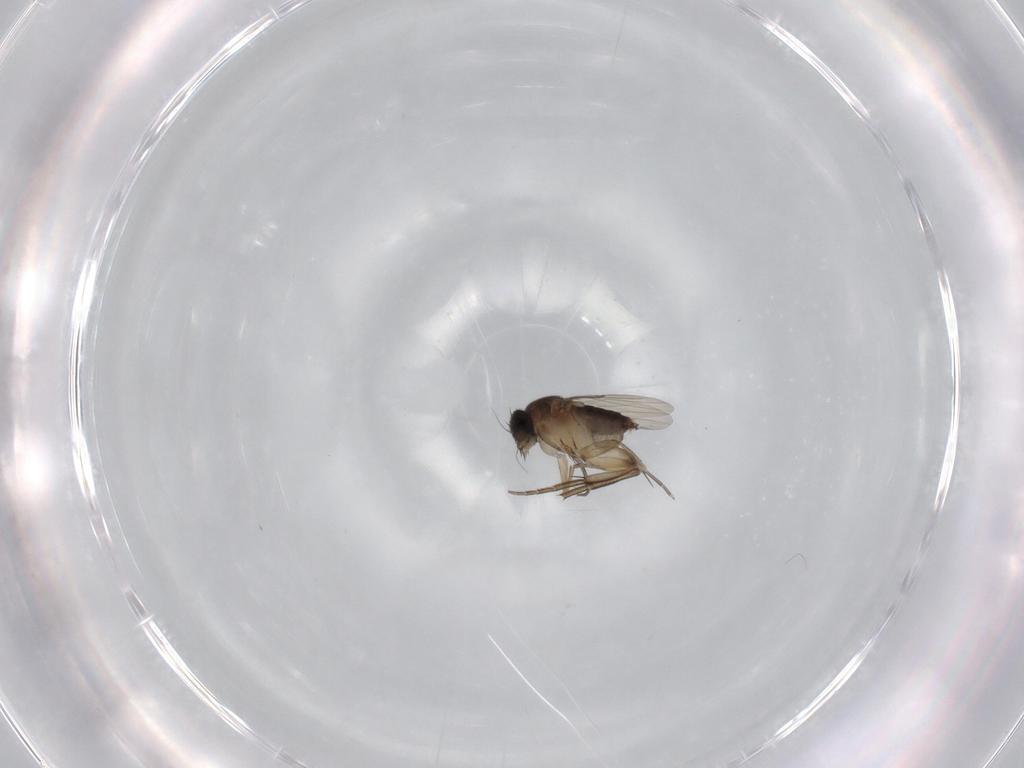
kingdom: Animalia
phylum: Arthropoda
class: Insecta
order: Diptera
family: Phoridae
